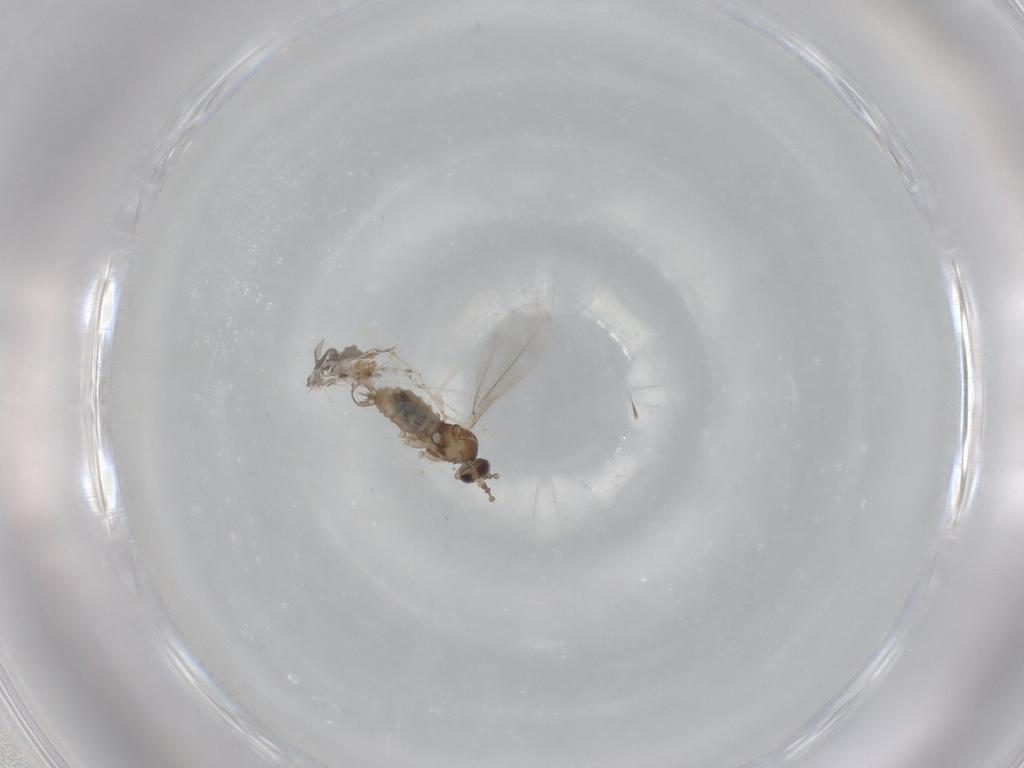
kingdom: Animalia
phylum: Arthropoda
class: Insecta
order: Diptera
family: Cecidomyiidae
